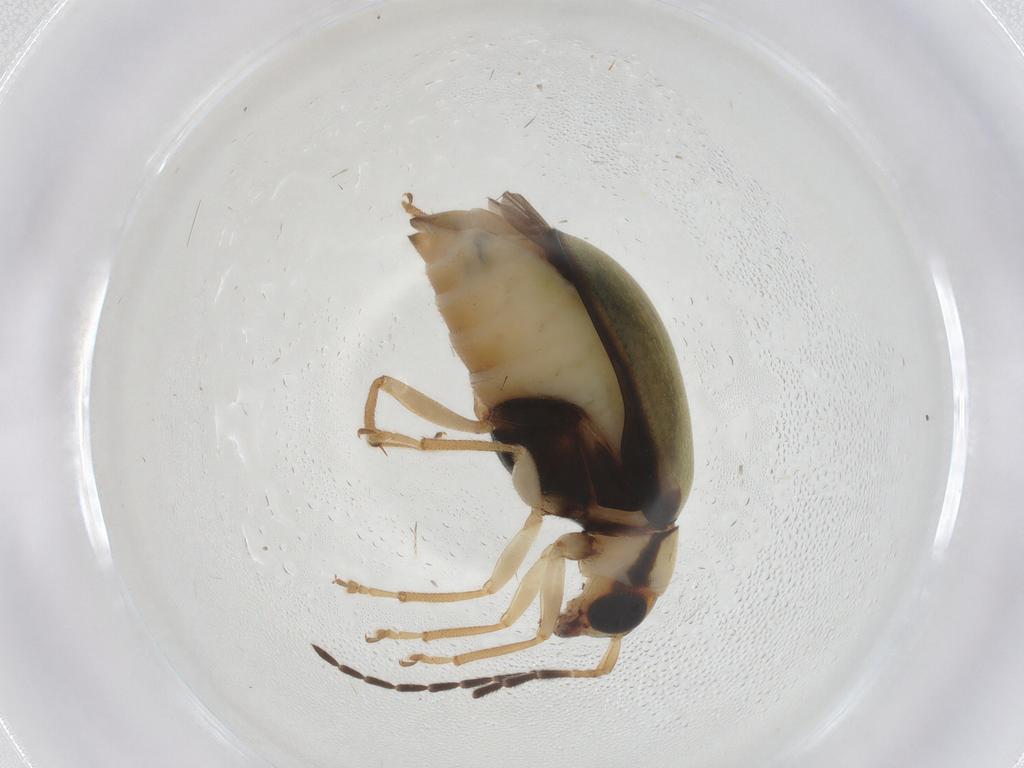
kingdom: Animalia
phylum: Arthropoda
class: Insecta
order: Coleoptera
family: Chrysomelidae
